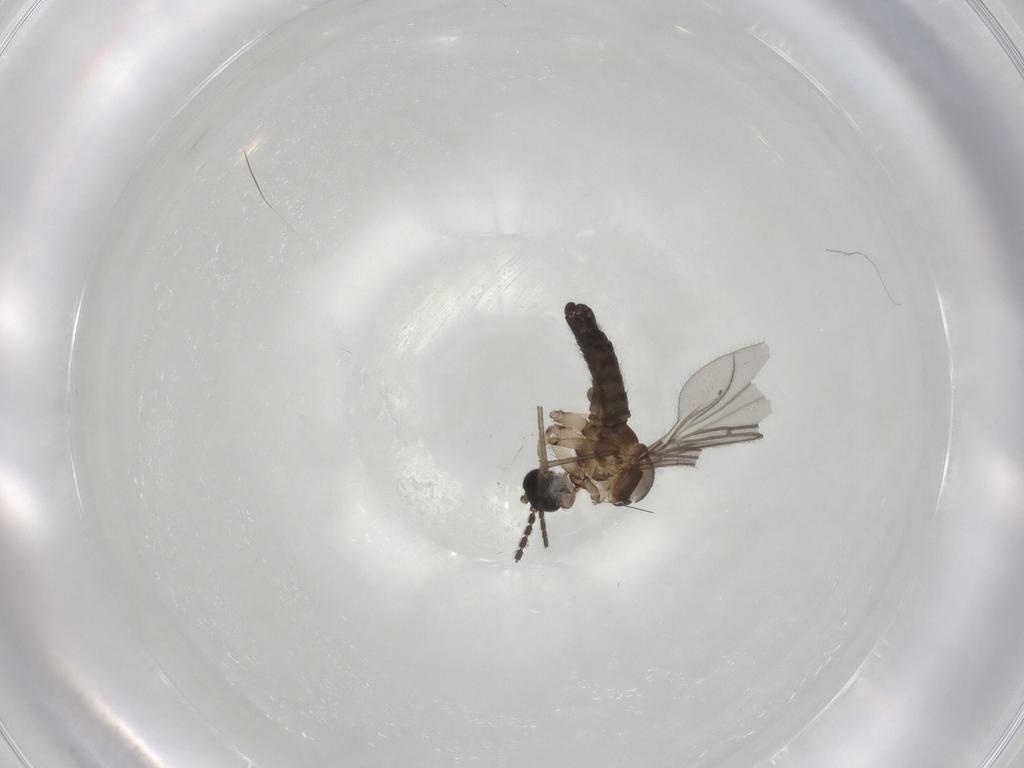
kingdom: Animalia
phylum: Arthropoda
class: Insecta
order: Diptera
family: Sciaridae
